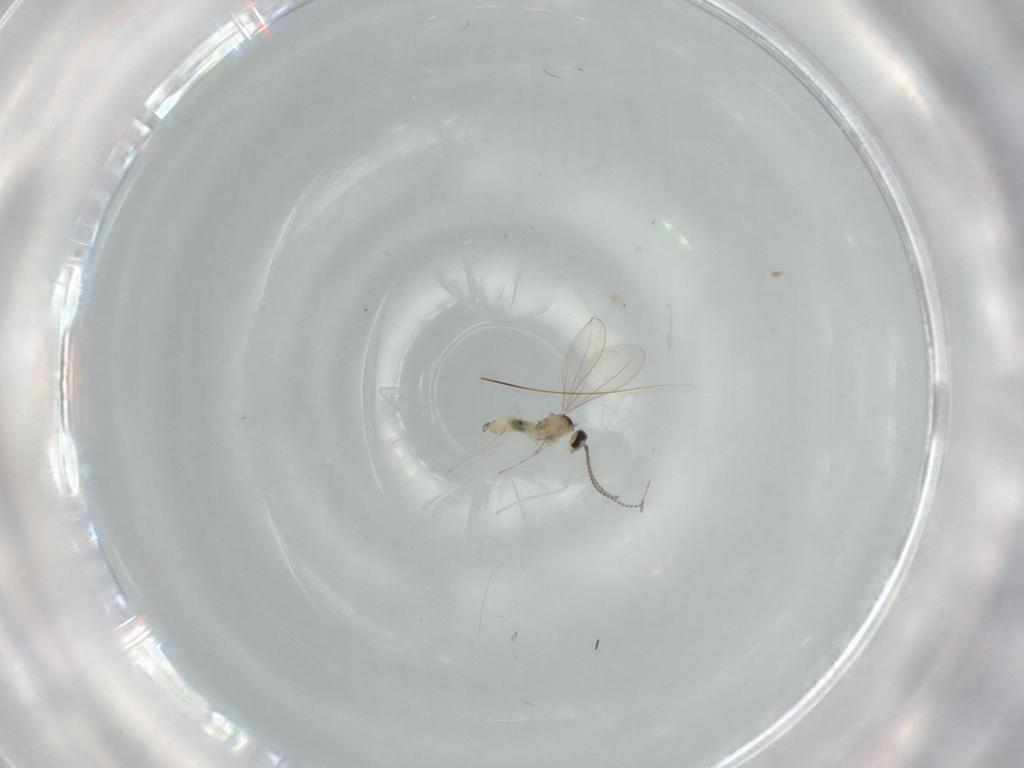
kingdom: Animalia
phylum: Arthropoda
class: Insecta
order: Diptera
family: Cecidomyiidae
